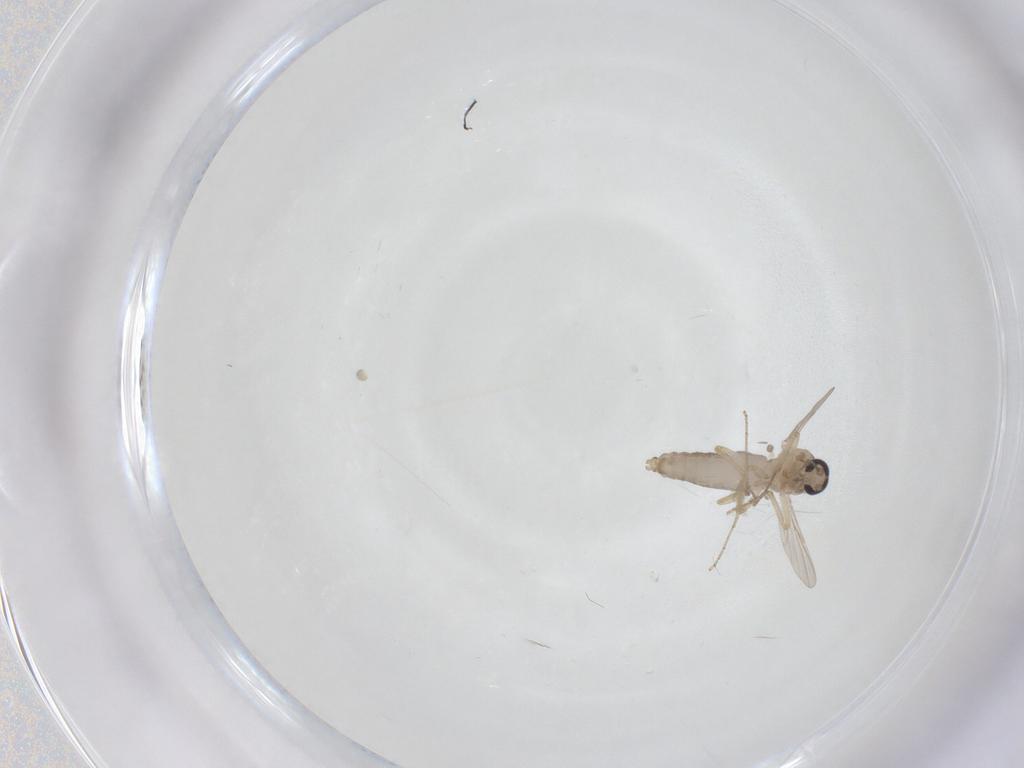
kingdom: Animalia
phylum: Arthropoda
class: Insecta
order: Diptera
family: Ceratopogonidae
